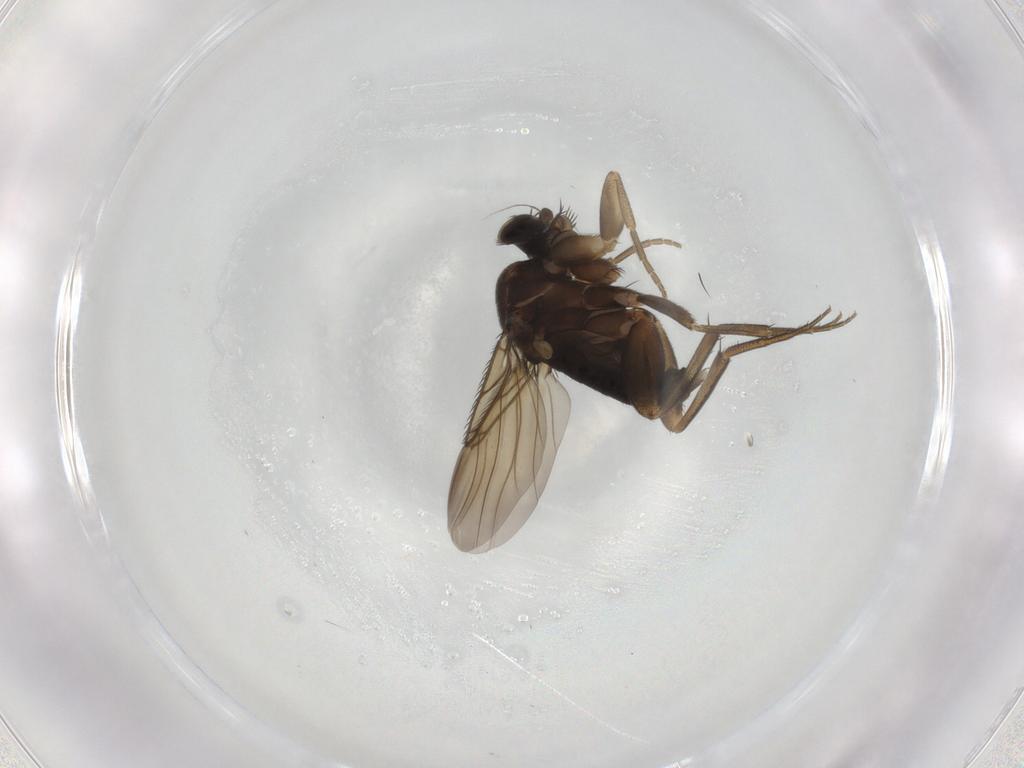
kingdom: Animalia
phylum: Arthropoda
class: Insecta
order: Diptera
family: Phoridae
